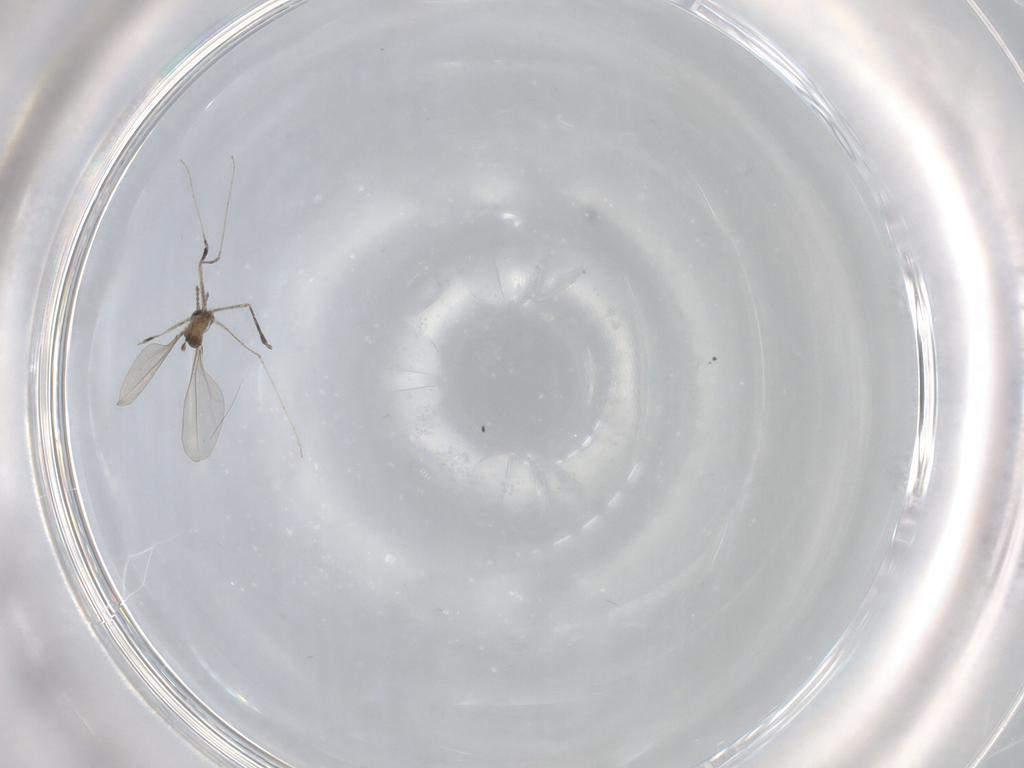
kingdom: Animalia
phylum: Arthropoda
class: Insecta
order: Diptera
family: Cecidomyiidae
